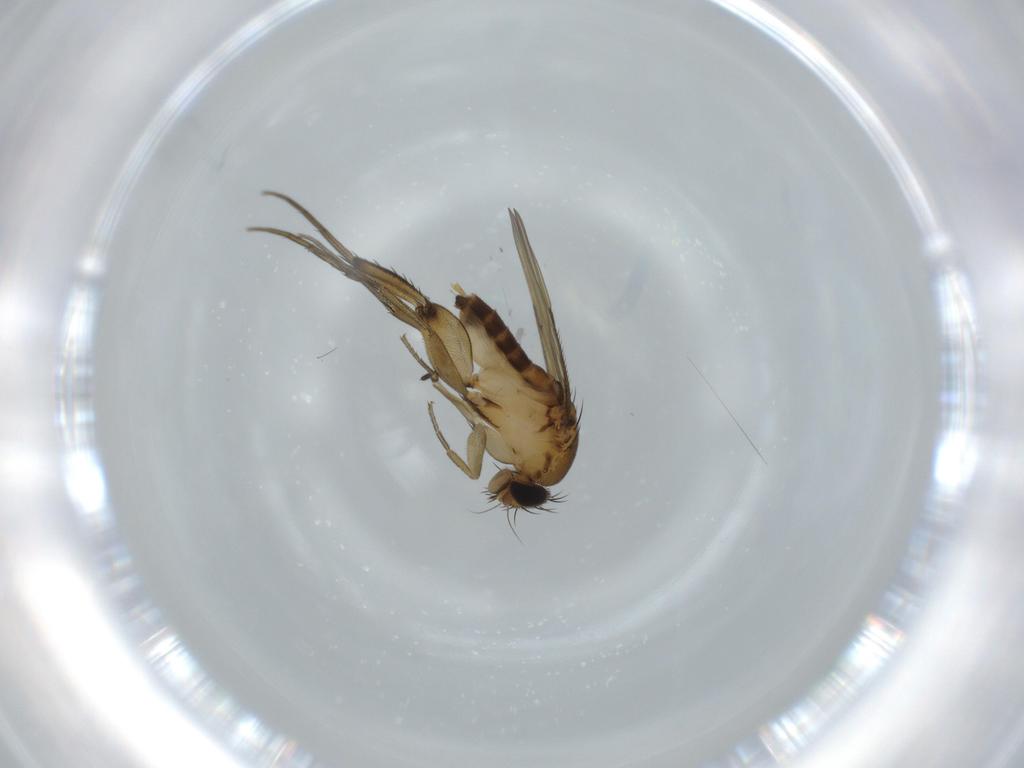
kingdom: Animalia
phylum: Arthropoda
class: Insecta
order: Diptera
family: Phoridae
